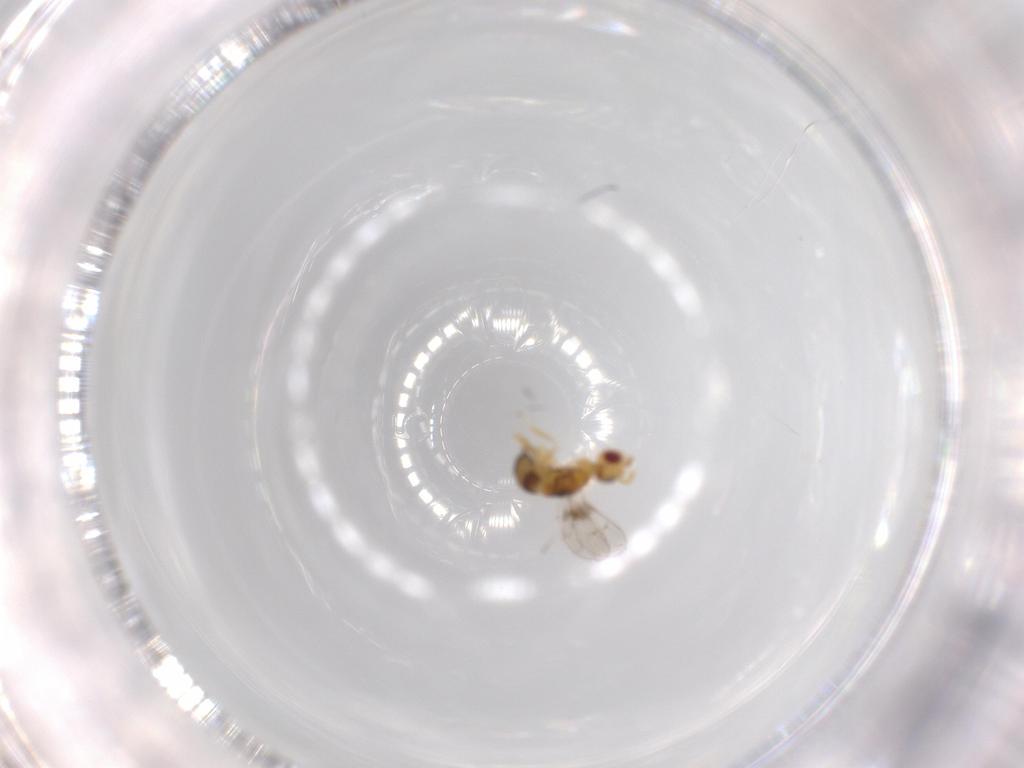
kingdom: Animalia
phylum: Arthropoda
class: Insecta
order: Hymenoptera
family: Torymidae
